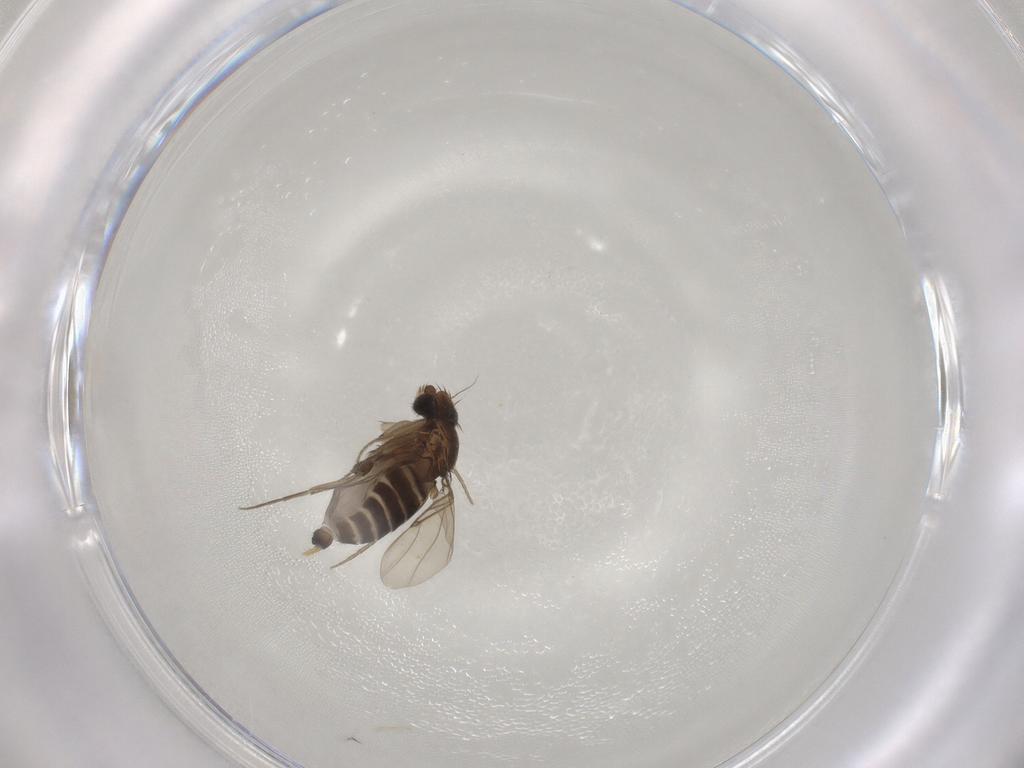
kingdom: Animalia
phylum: Arthropoda
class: Insecta
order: Diptera
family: Phoridae
